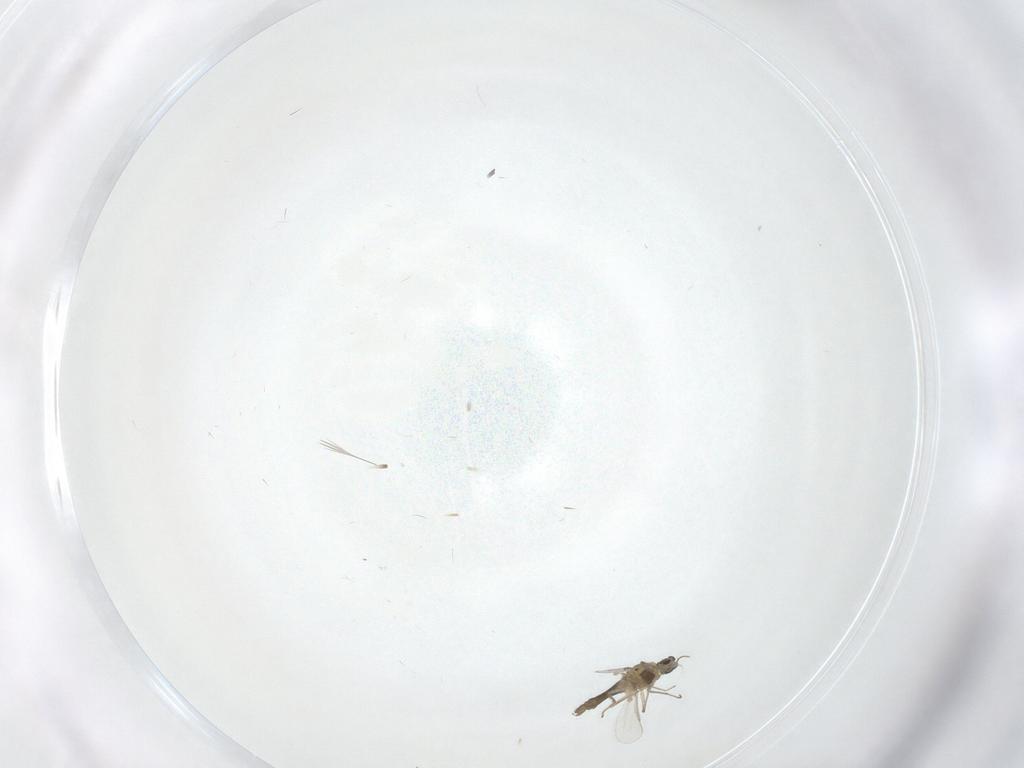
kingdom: Animalia
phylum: Arthropoda
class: Insecta
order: Diptera
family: Chironomidae
